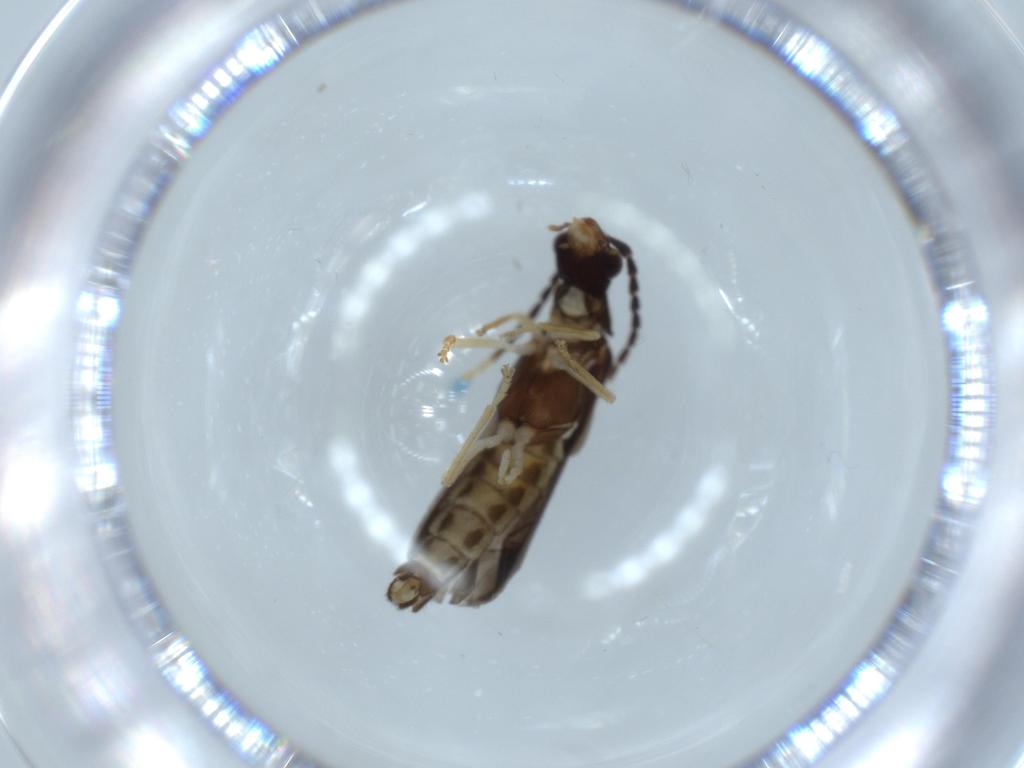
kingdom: Animalia
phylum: Arthropoda
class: Insecta
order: Coleoptera
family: Cantharidae
